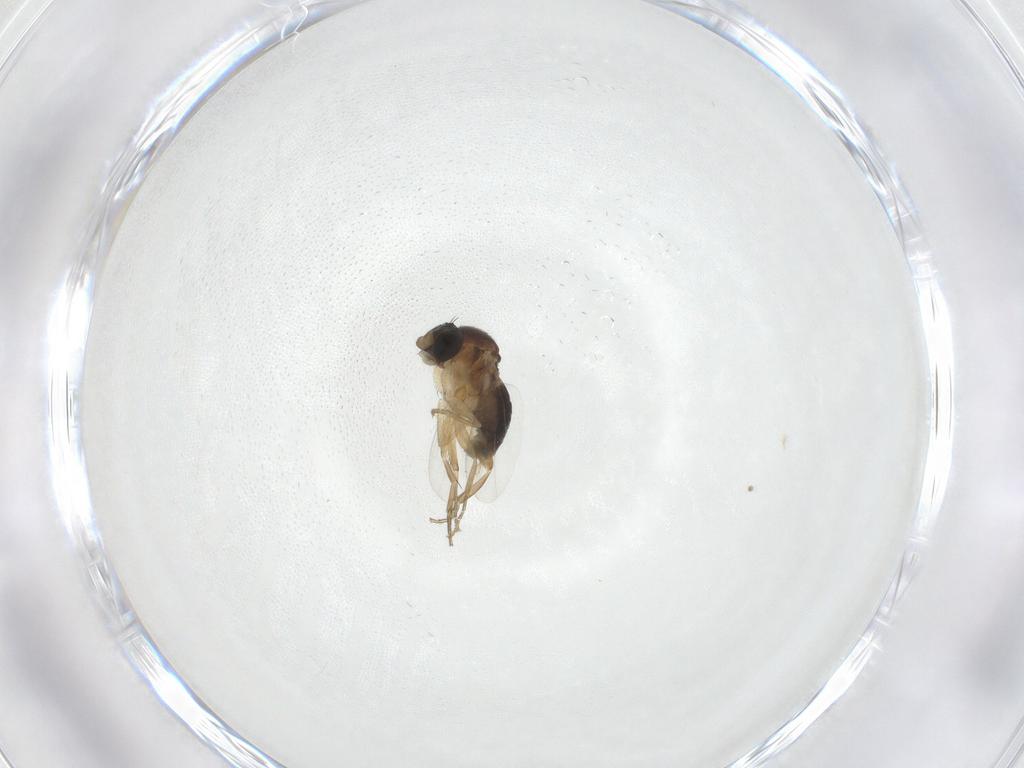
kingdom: Animalia
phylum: Arthropoda
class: Insecta
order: Diptera
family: Phoridae
